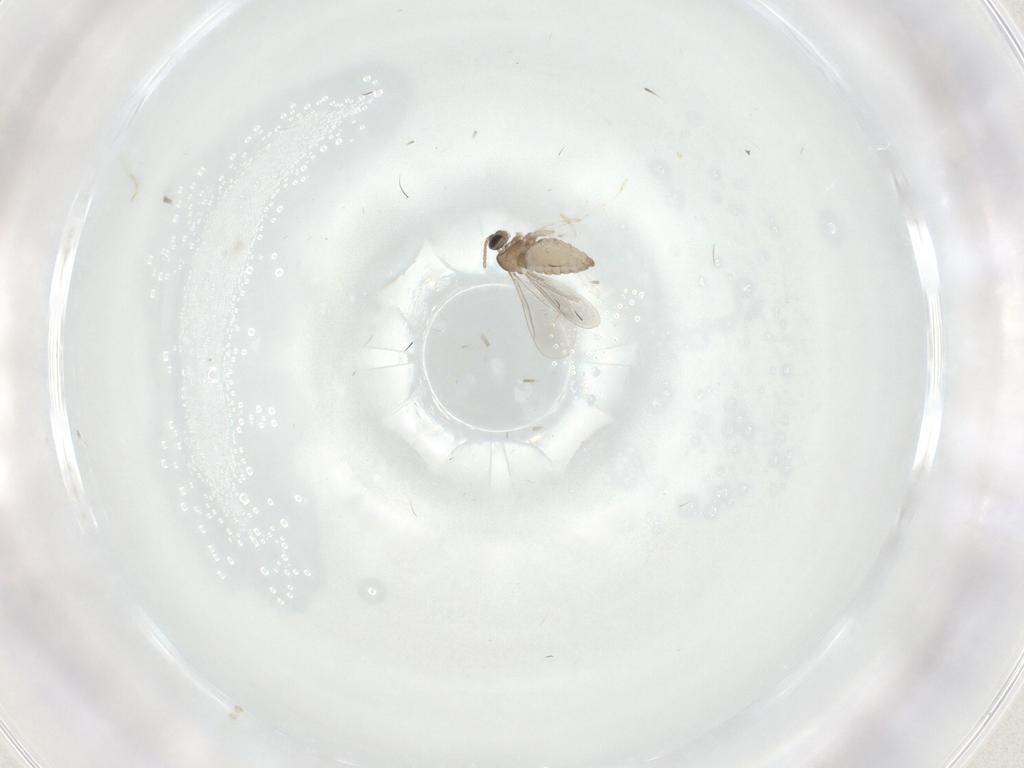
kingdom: Animalia
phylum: Arthropoda
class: Insecta
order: Diptera
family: Cecidomyiidae
